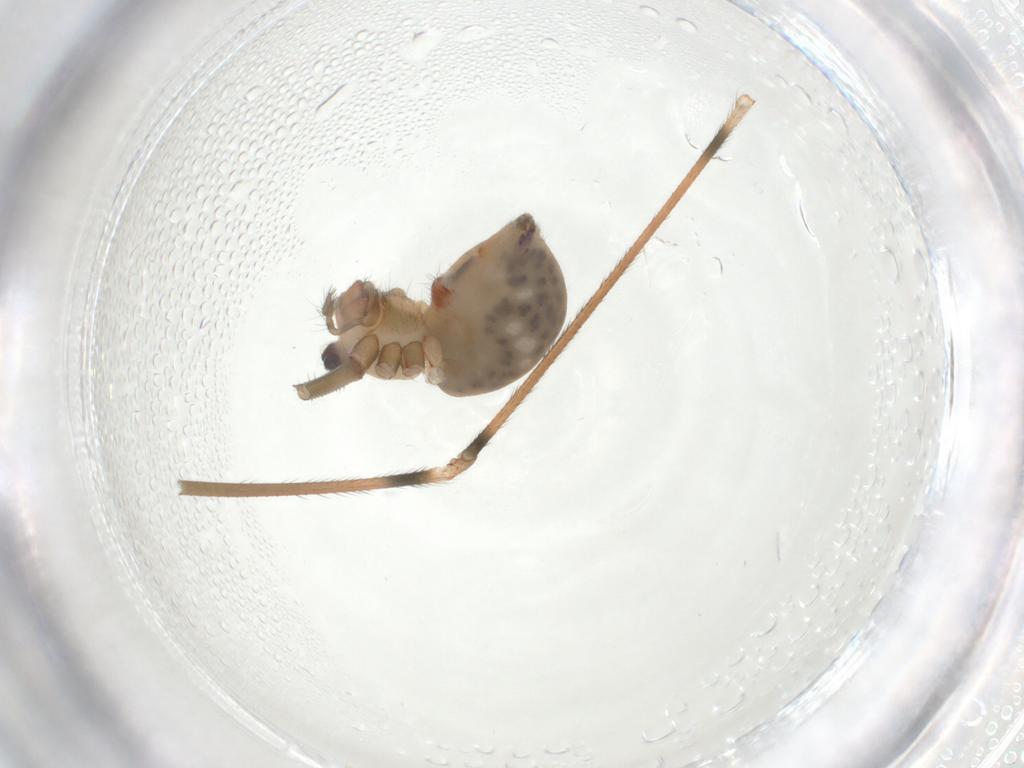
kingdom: Animalia
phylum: Arthropoda
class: Arachnida
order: Araneae
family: Pholcidae
